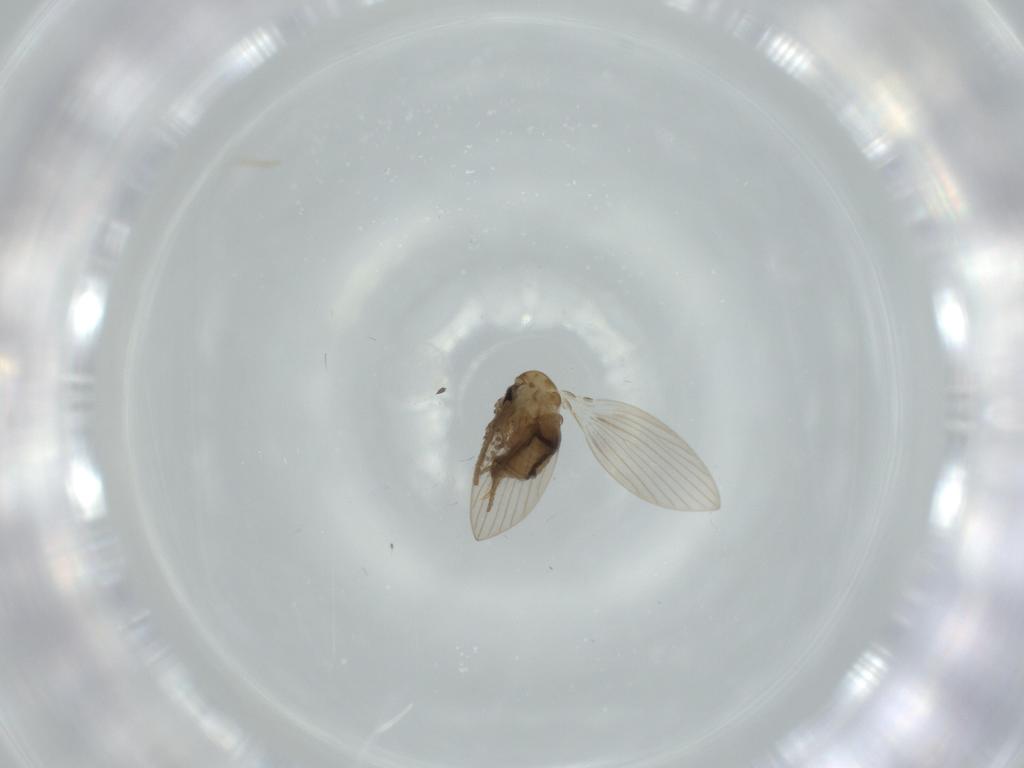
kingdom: Animalia
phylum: Arthropoda
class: Insecta
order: Diptera
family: Psychodidae
